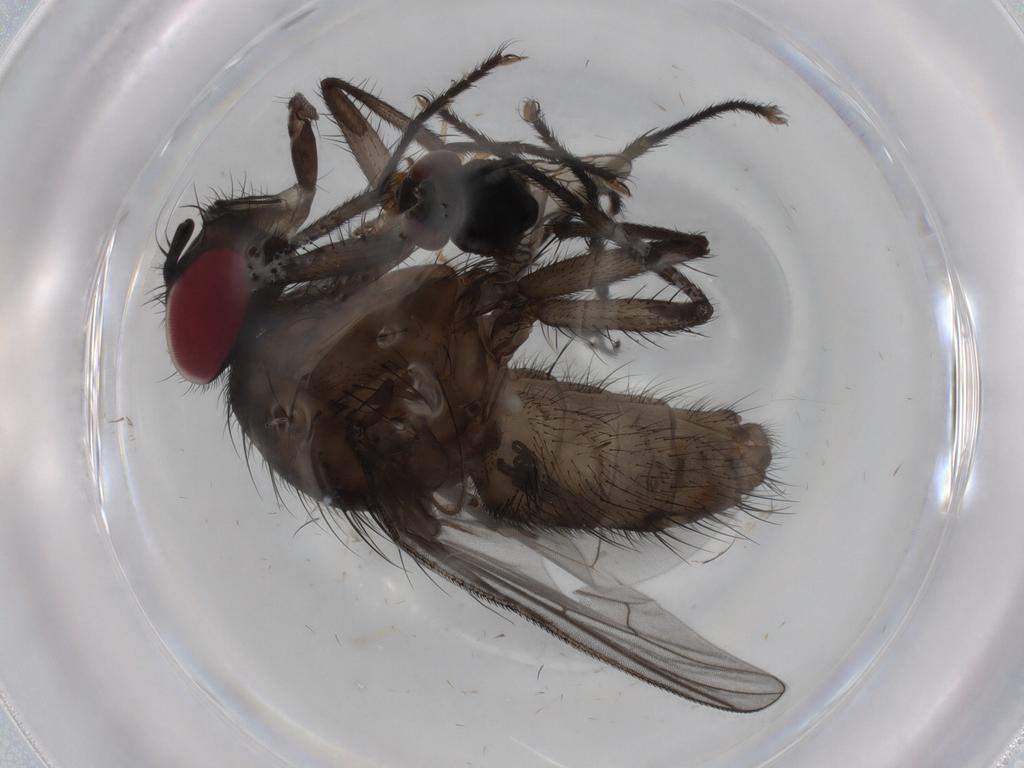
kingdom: Animalia
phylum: Arthropoda
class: Insecta
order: Diptera
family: Muscidae
